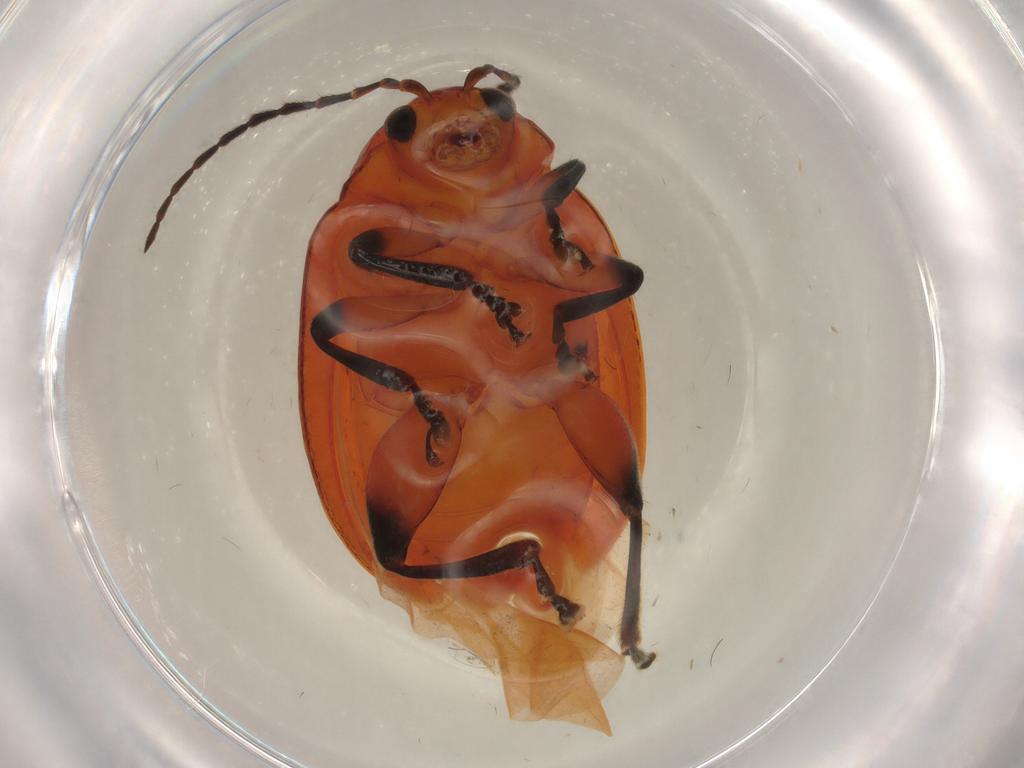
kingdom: Animalia
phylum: Arthropoda
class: Insecta
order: Coleoptera
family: Chrysomelidae
